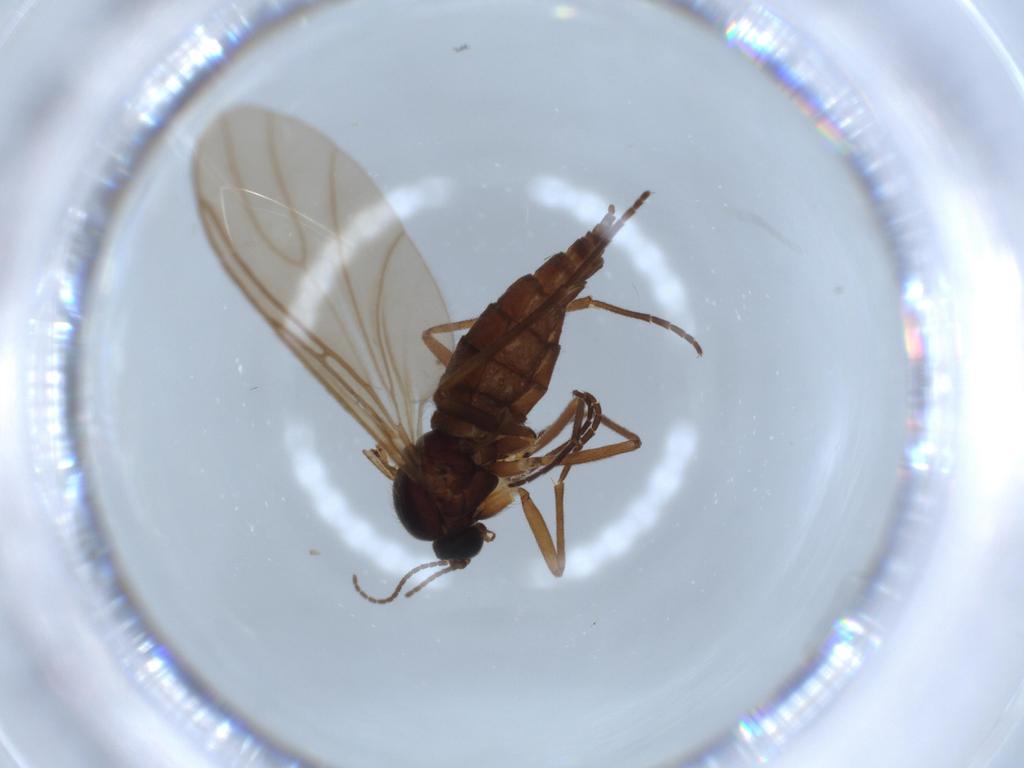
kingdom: Animalia
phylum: Arthropoda
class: Insecta
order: Diptera
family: Sciaridae
